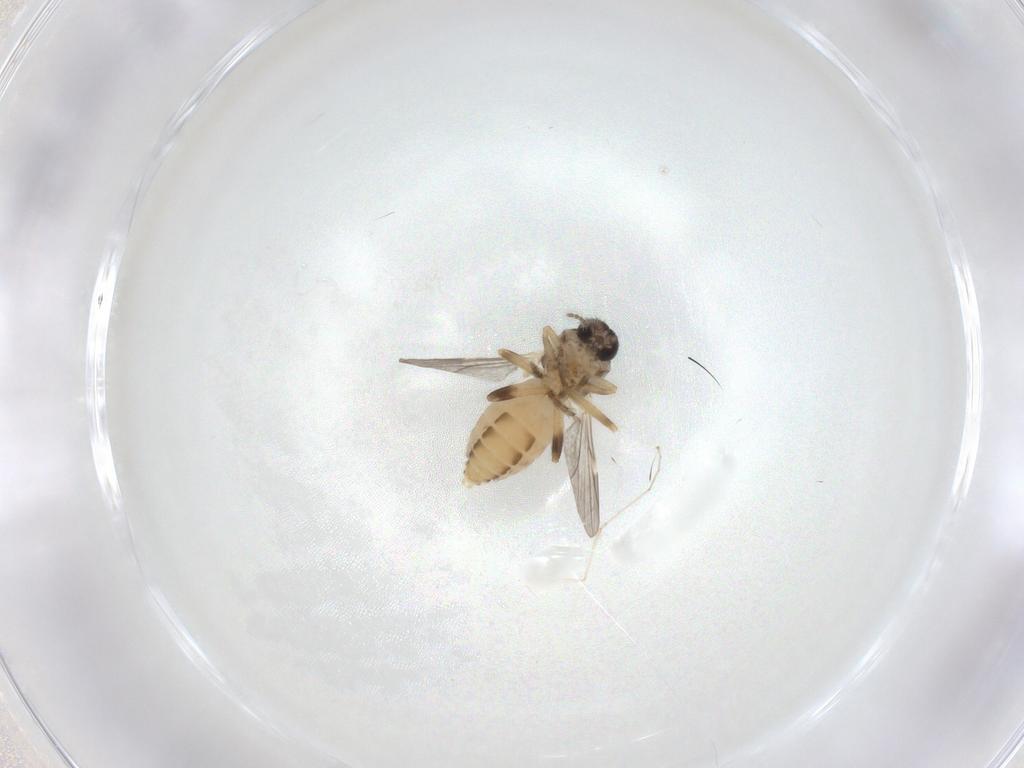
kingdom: Animalia
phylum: Arthropoda
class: Insecta
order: Diptera
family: Ceratopogonidae
